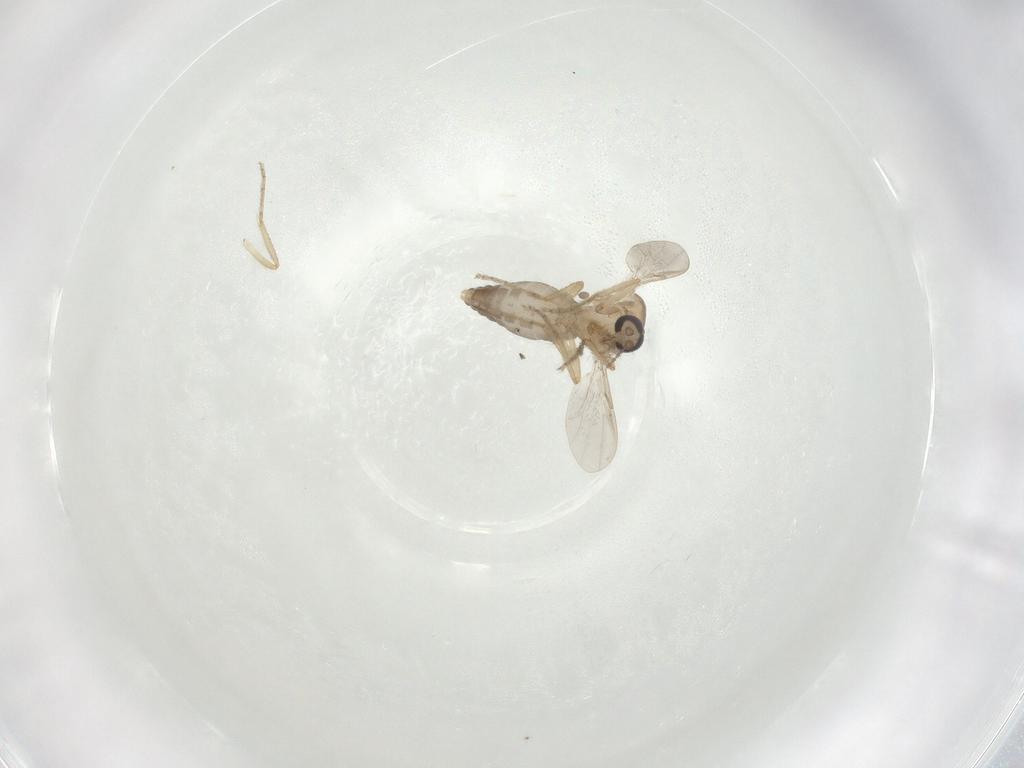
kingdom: Animalia
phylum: Arthropoda
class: Insecta
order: Diptera
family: Ceratopogonidae
